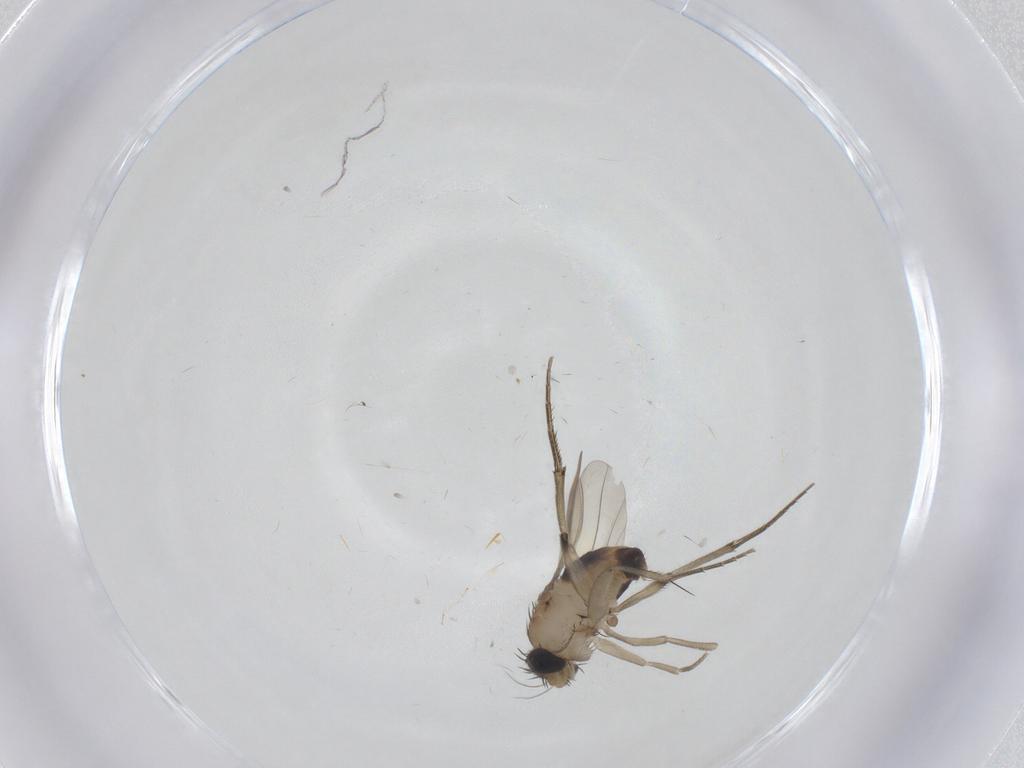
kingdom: Animalia
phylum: Arthropoda
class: Insecta
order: Diptera
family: Phoridae
